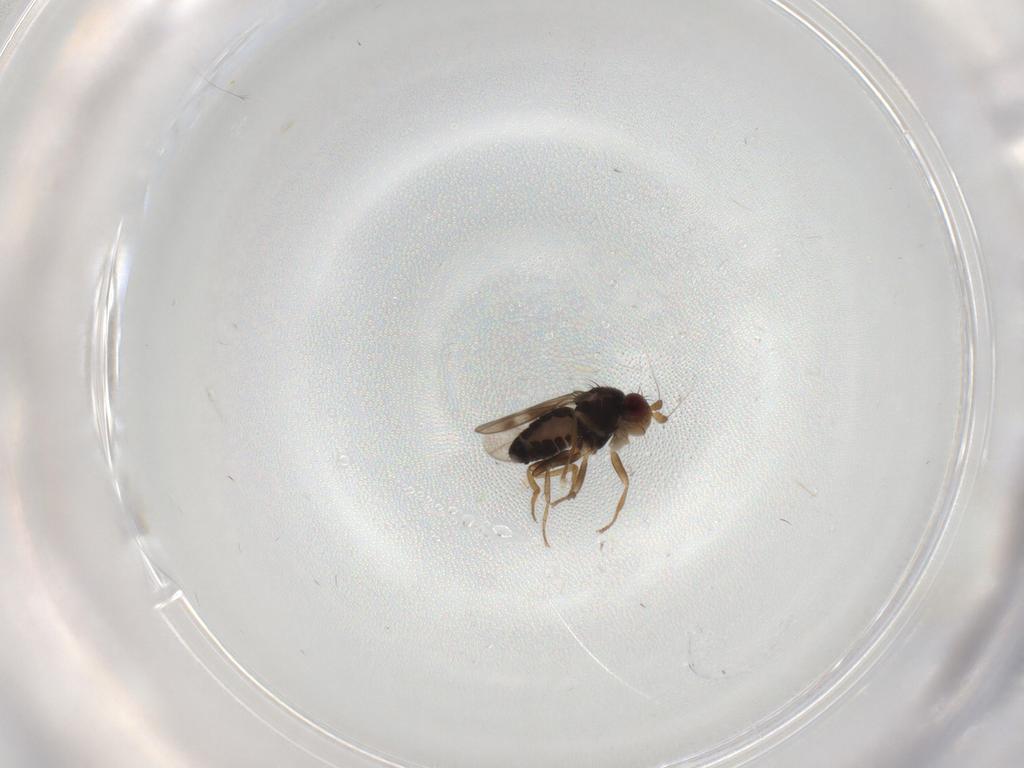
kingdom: Animalia
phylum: Arthropoda
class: Insecta
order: Diptera
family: Sphaeroceridae
